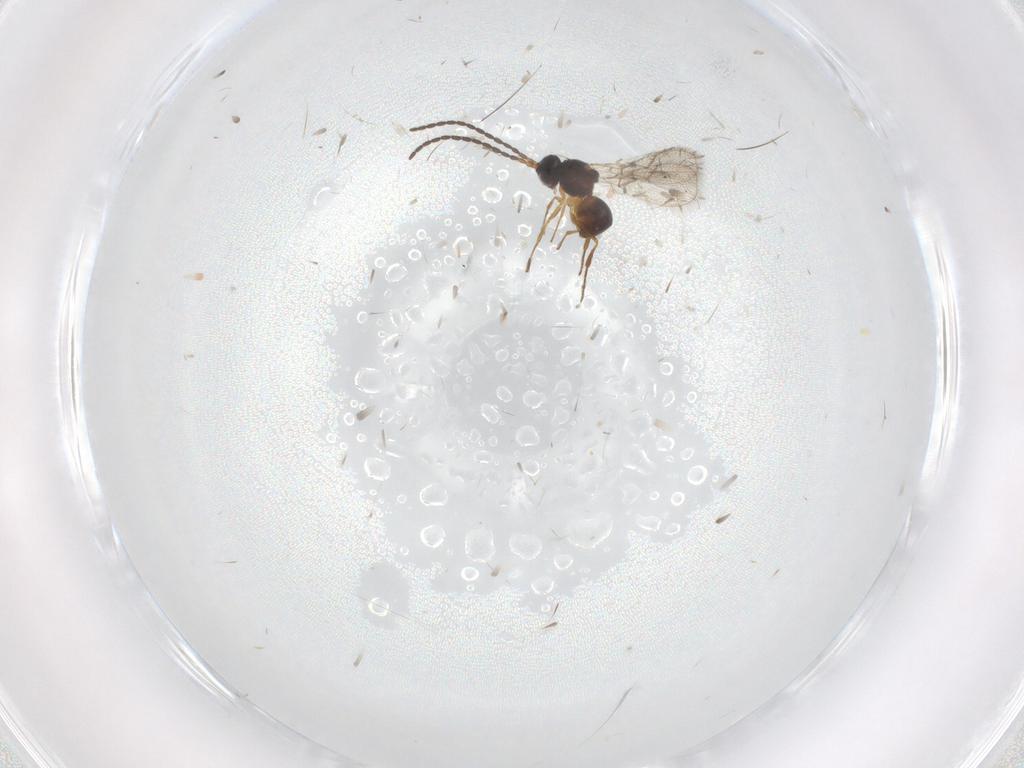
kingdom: Animalia
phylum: Arthropoda
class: Insecta
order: Hymenoptera
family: Figitidae
